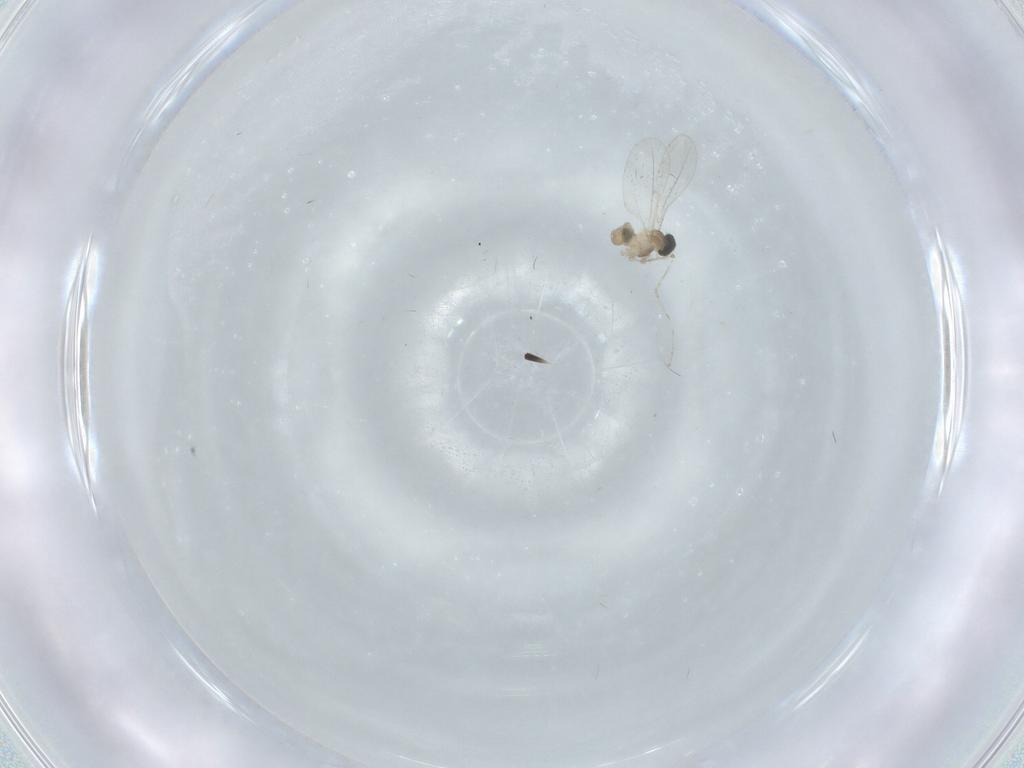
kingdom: Animalia
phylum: Arthropoda
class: Insecta
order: Diptera
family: Cecidomyiidae
